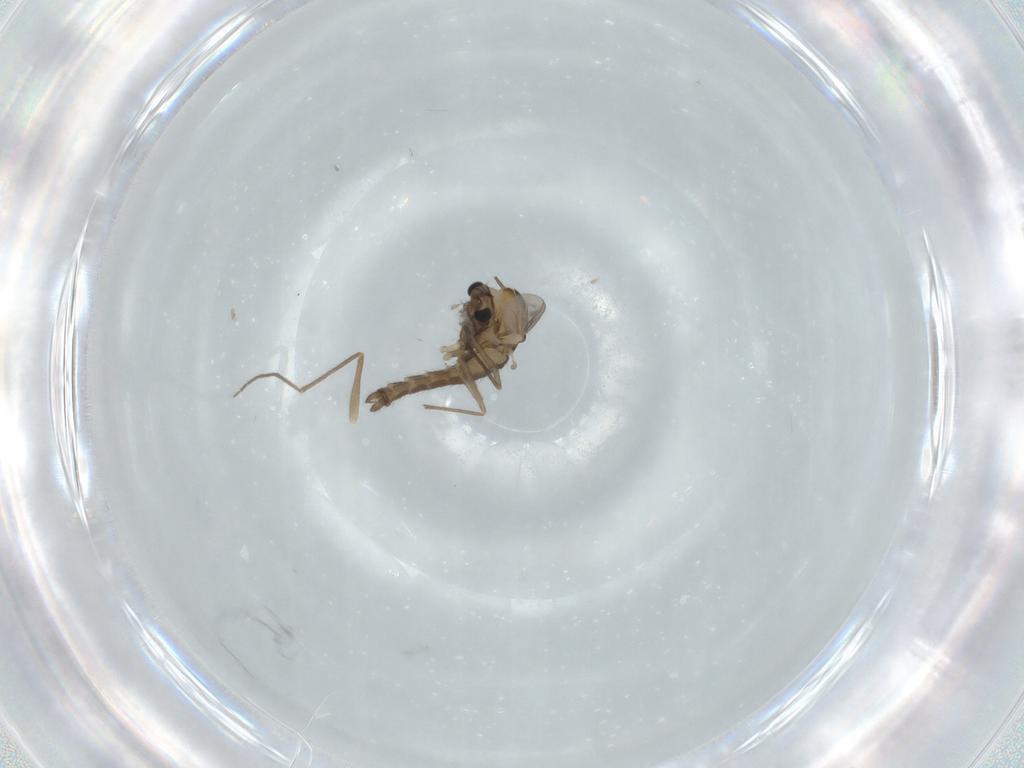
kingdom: Animalia
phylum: Arthropoda
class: Insecta
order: Diptera
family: Chironomidae
